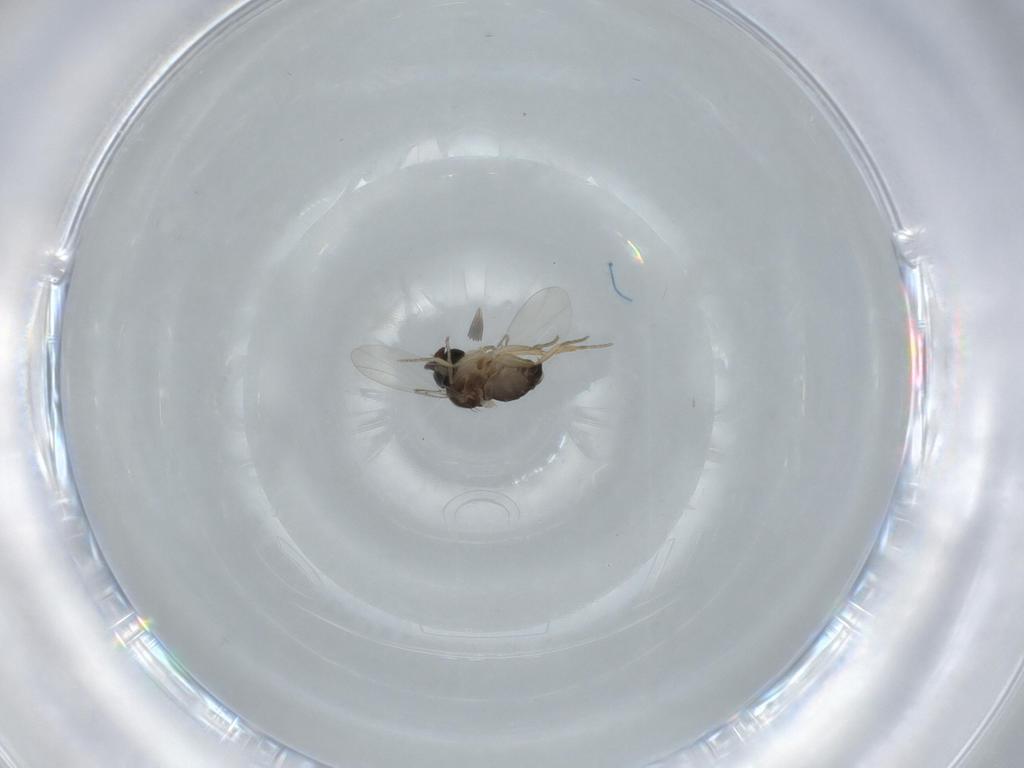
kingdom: Animalia
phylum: Arthropoda
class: Insecta
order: Diptera
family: Phoridae
